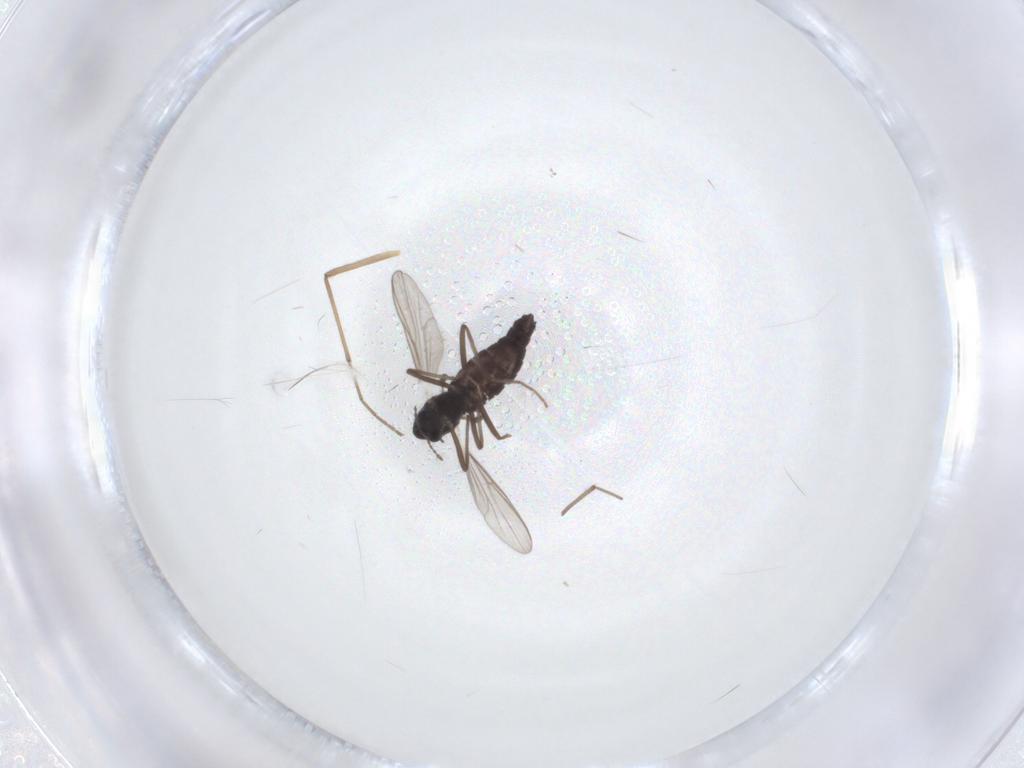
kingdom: Animalia
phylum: Arthropoda
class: Insecta
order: Diptera
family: Chironomidae
